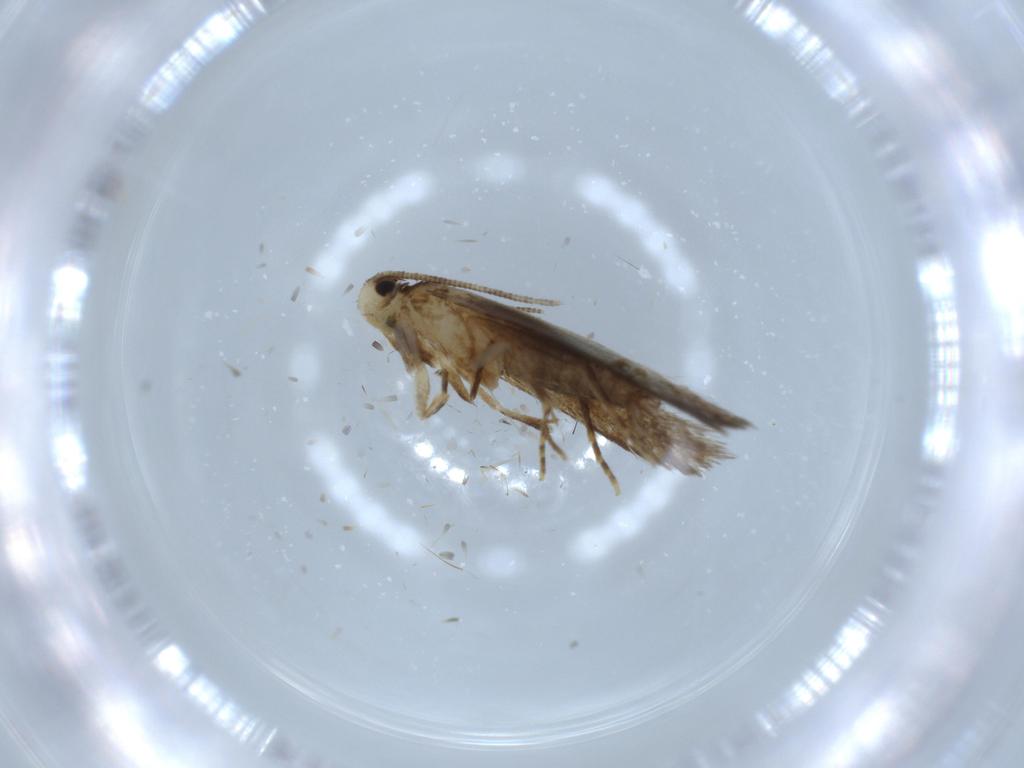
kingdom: Animalia
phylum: Arthropoda
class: Insecta
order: Lepidoptera
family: Tineidae
